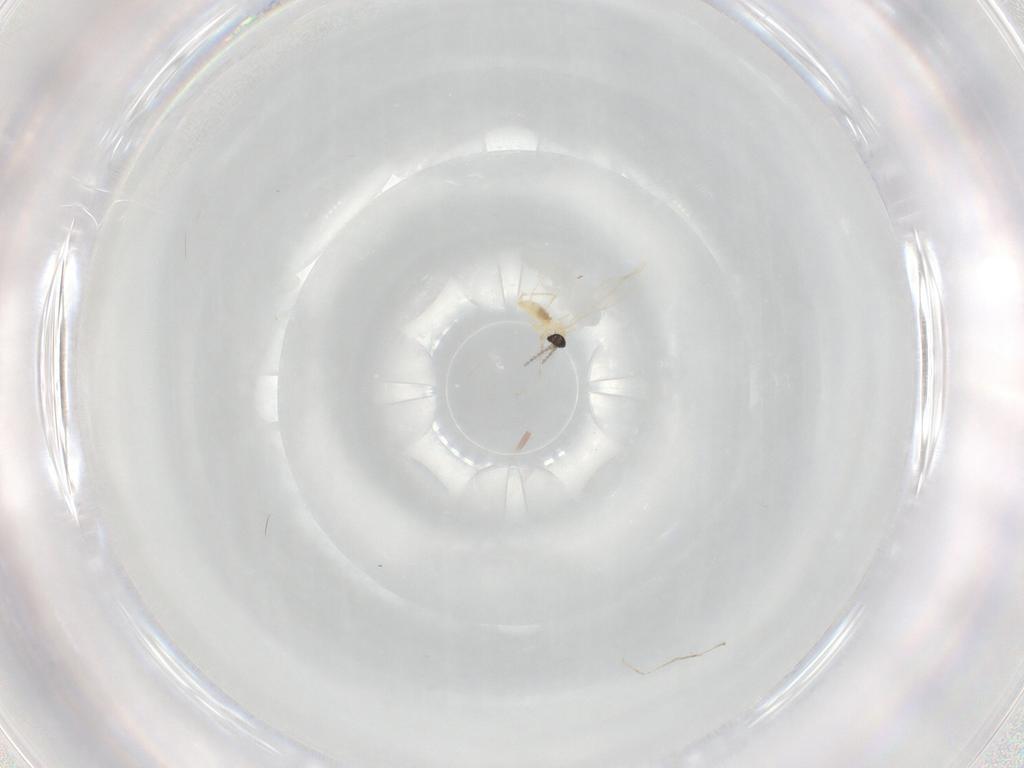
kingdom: Animalia
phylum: Arthropoda
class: Insecta
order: Diptera
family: Cecidomyiidae
